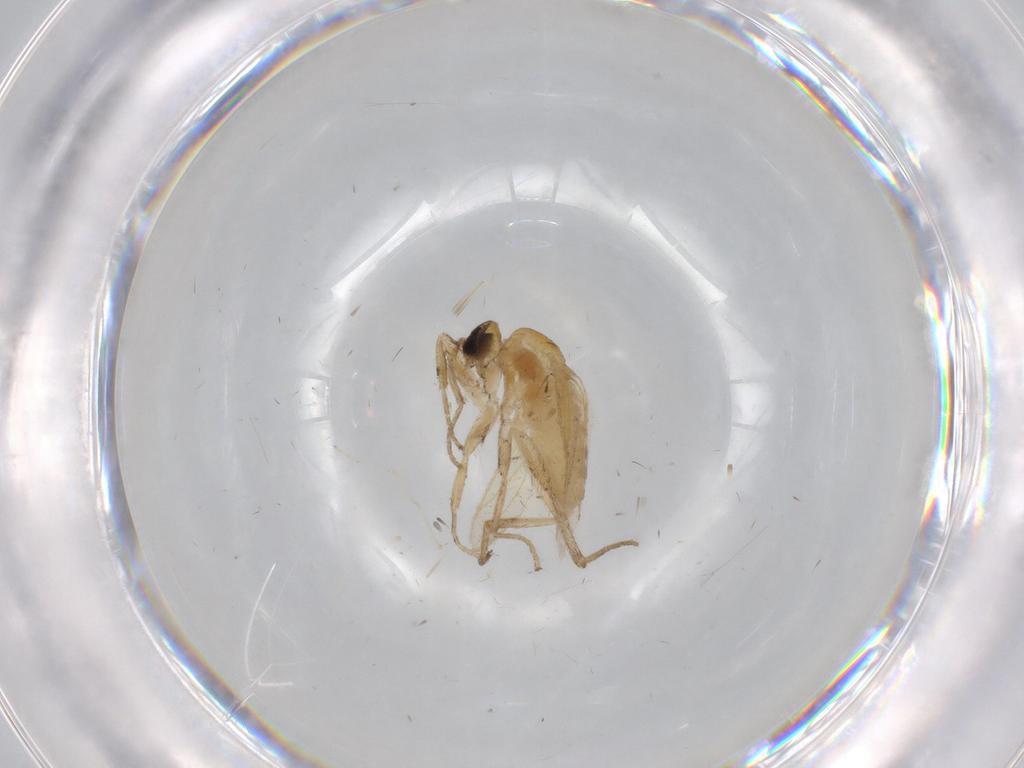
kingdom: Animalia
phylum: Arthropoda
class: Insecta
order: Diptera
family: Hybotidae
